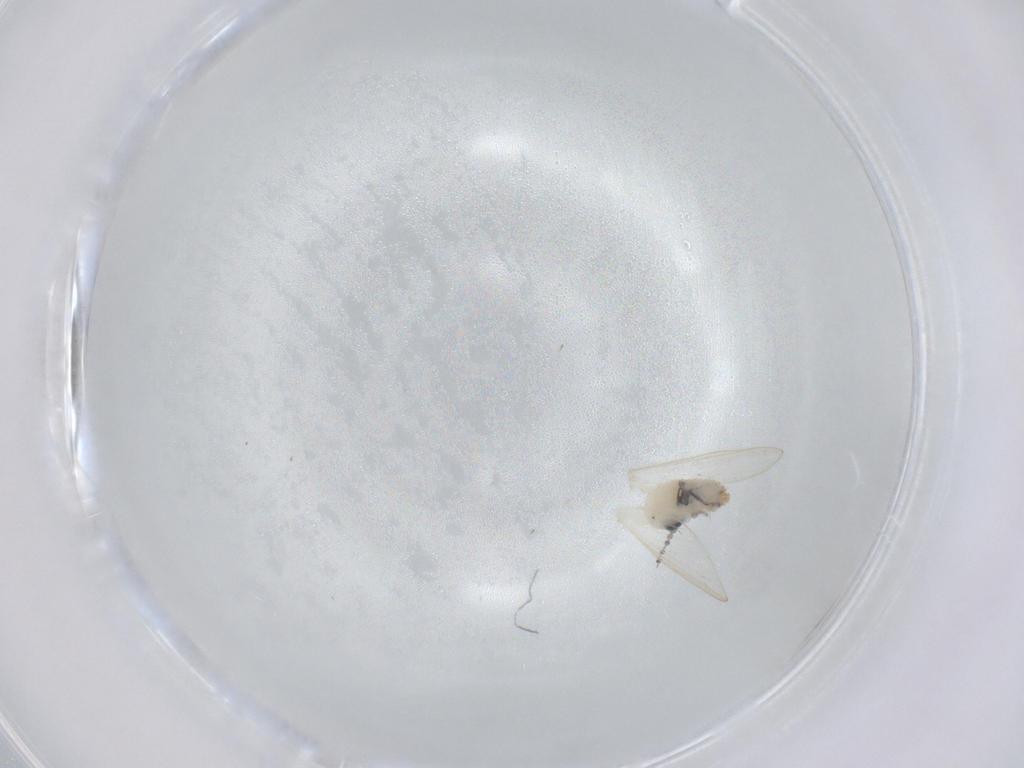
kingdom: Animalia
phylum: Arthropoda
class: Insecta
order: Diptera
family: Psychodidae
